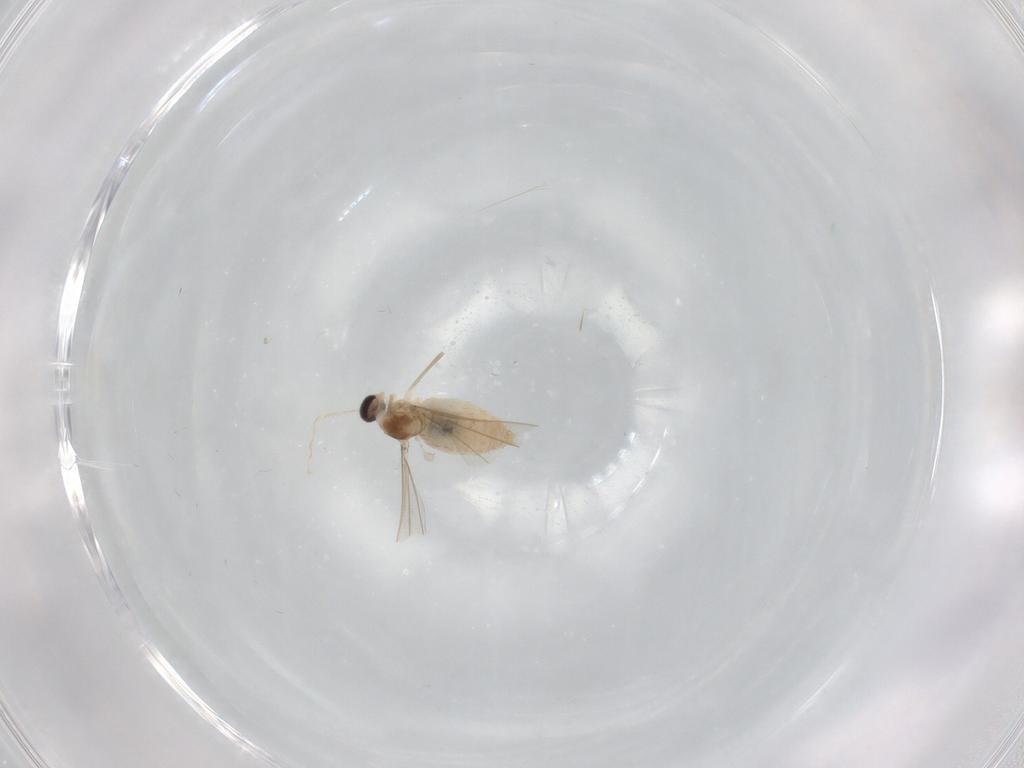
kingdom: Animalia
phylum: Arthropoda
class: Insecta
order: Diptera
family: Cecidomyiidae
